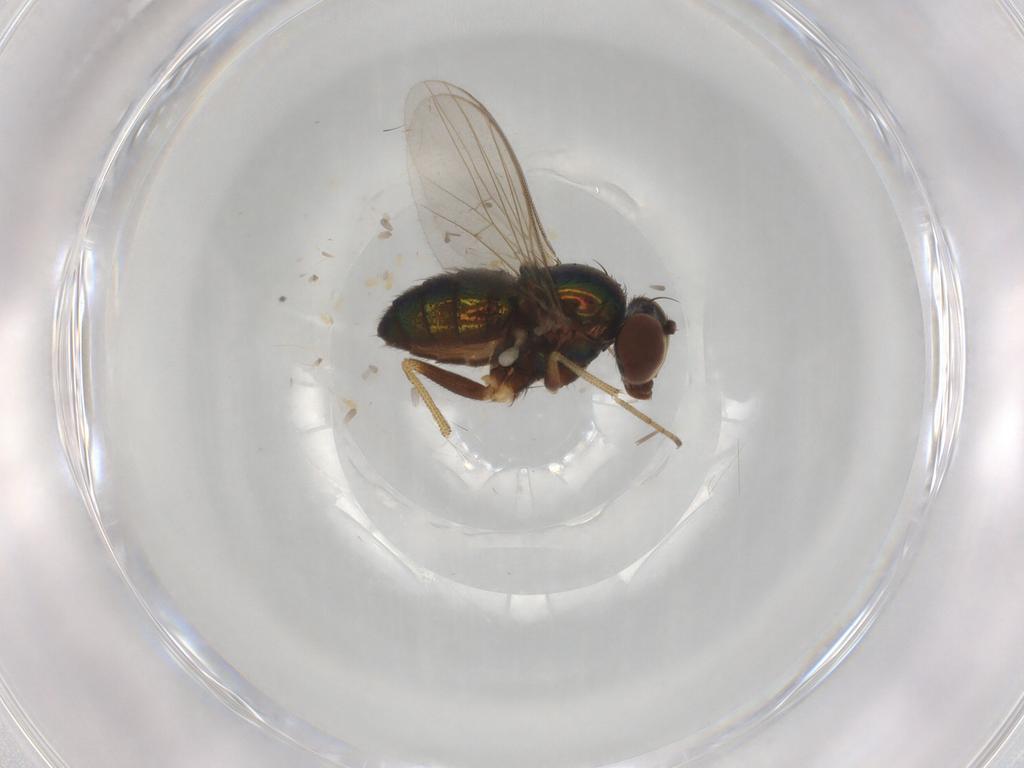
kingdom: Animalia
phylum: Arthropoda
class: Insecta
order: Diptera
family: Dolichopodidae
